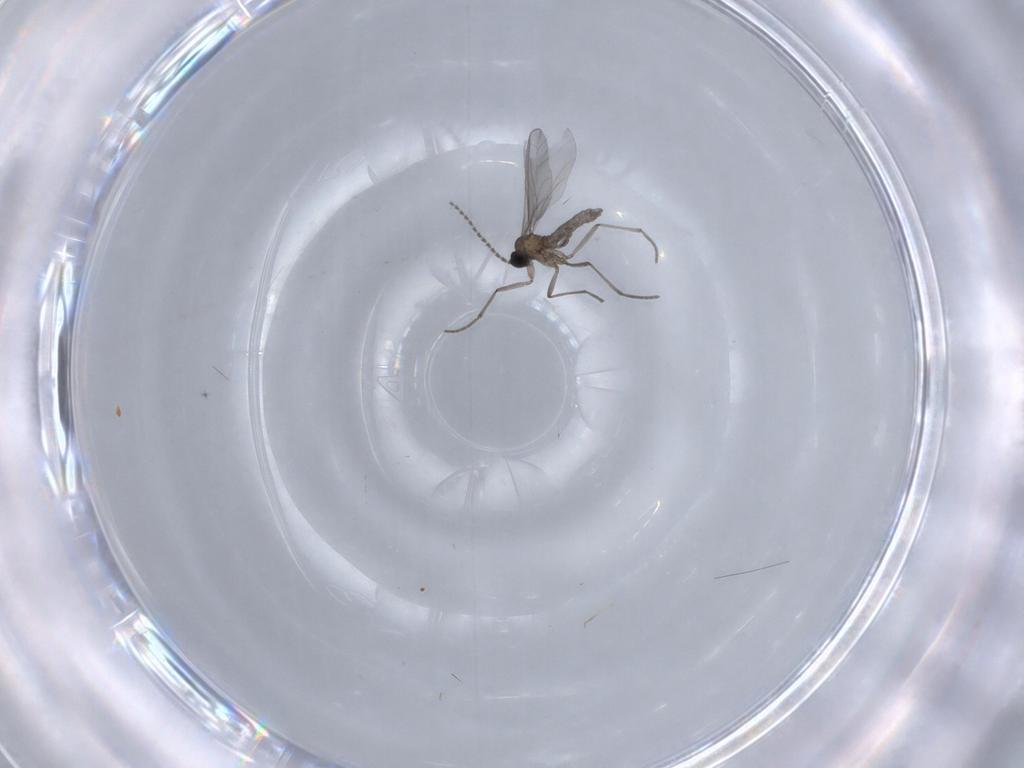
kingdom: Animalia
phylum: Arthropoda
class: Insecta
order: Diptera
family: Sciaridae
